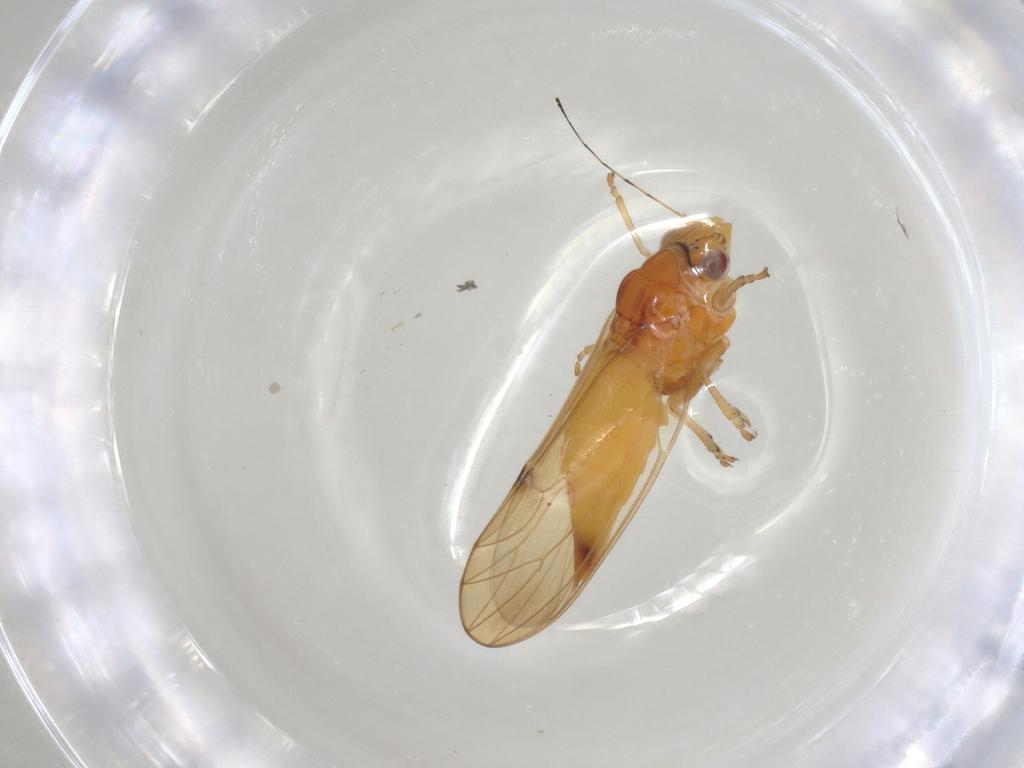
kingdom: Animalia
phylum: Arthropoda
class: Insecta
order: Hemiptera
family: Psylloidea_incertae_sedis
